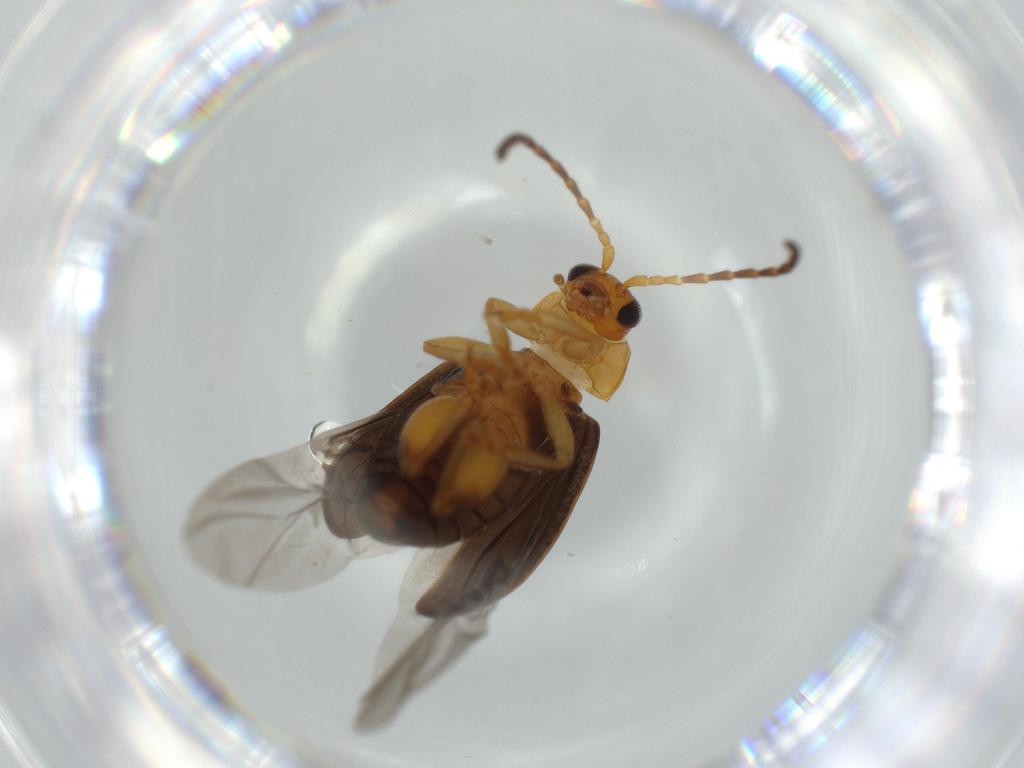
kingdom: Animalia
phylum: Arthropoda
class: Insecta
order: Coleoptera
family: Chrysomelidae
